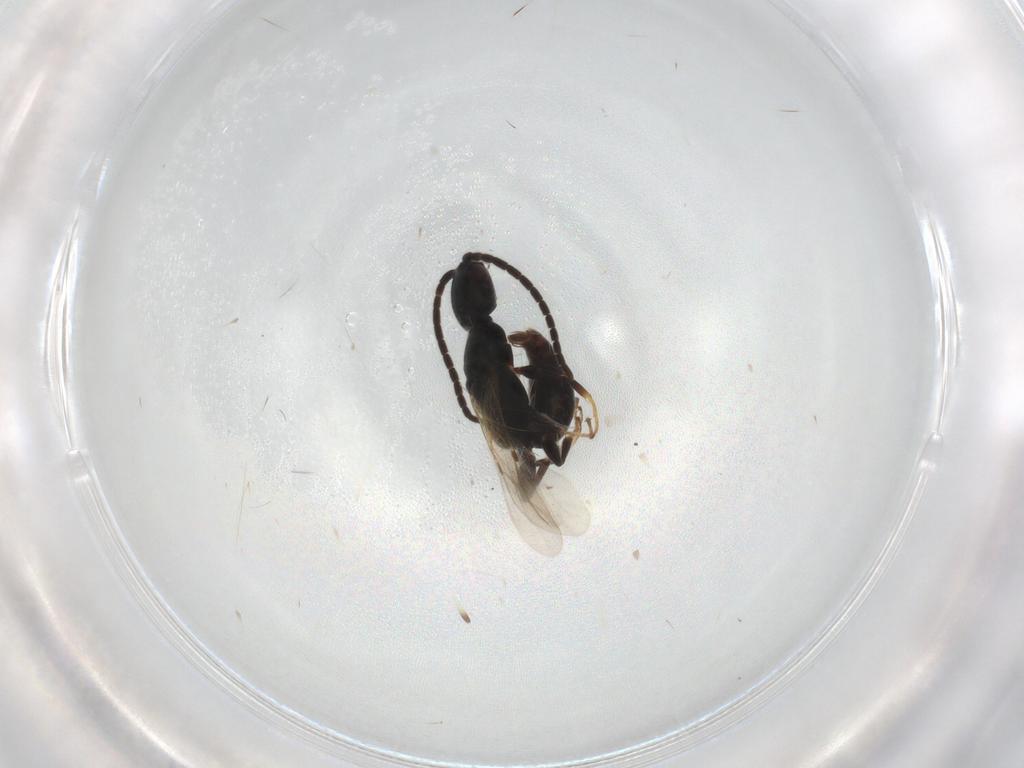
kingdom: Animalia
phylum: Arthropoda
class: Insecta
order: Hymenoptera
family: Bethylidae
